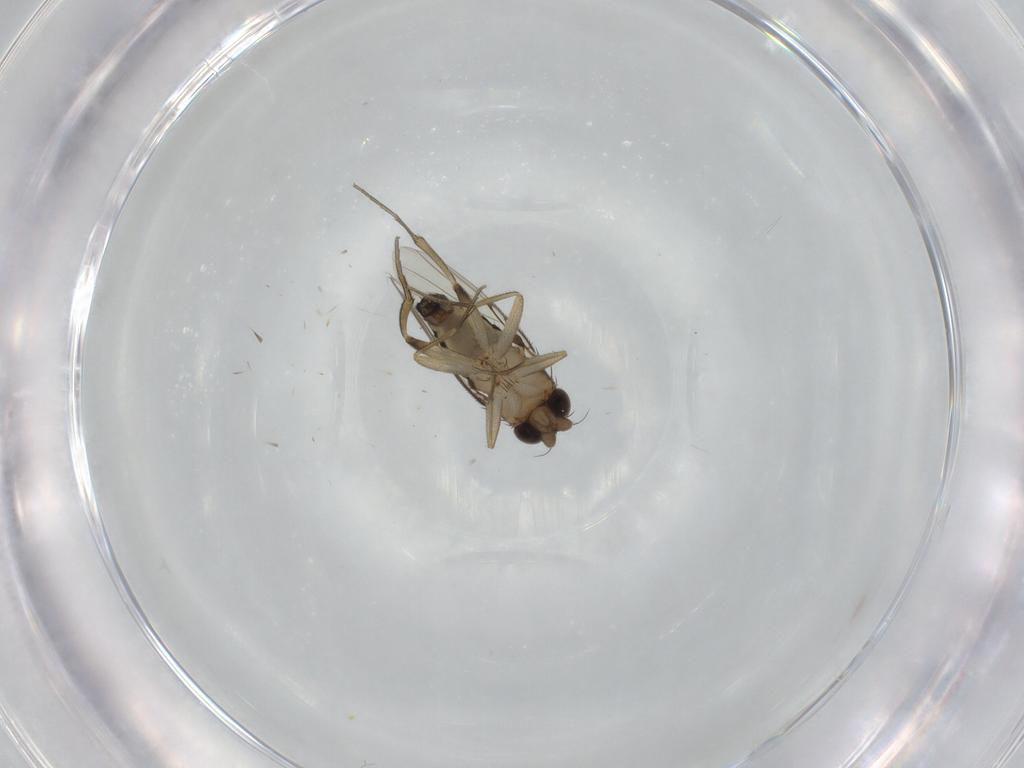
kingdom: Animalia
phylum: Arthropoda
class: Insecta
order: Diptera
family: Phoridae
